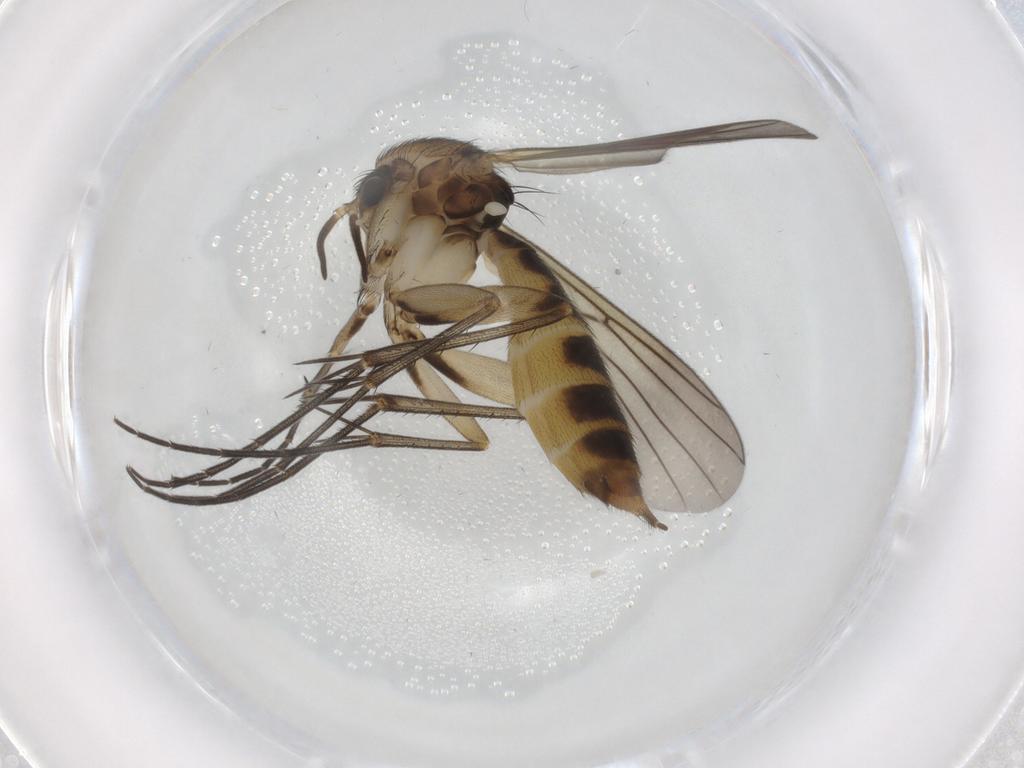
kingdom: Animalia
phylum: Arthropoda
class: Insecta
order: Diptera
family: Mycetophilidae
